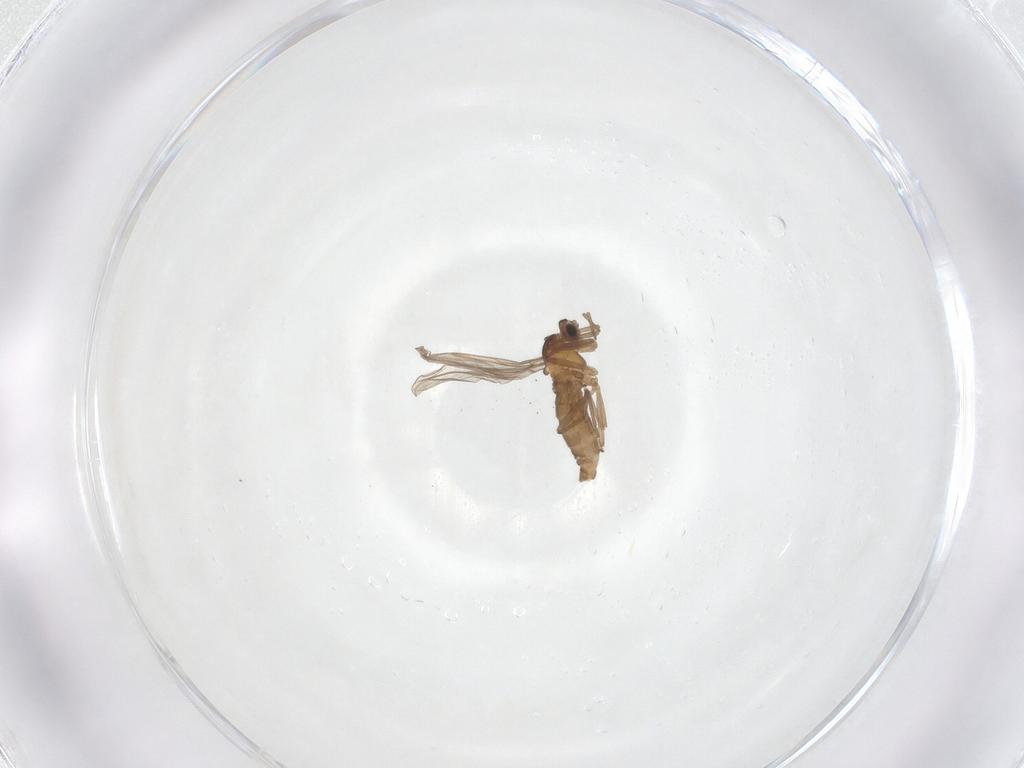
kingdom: Animalia
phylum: Arthropoda
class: Insecta
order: Diptera
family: Cecidomyiidae
